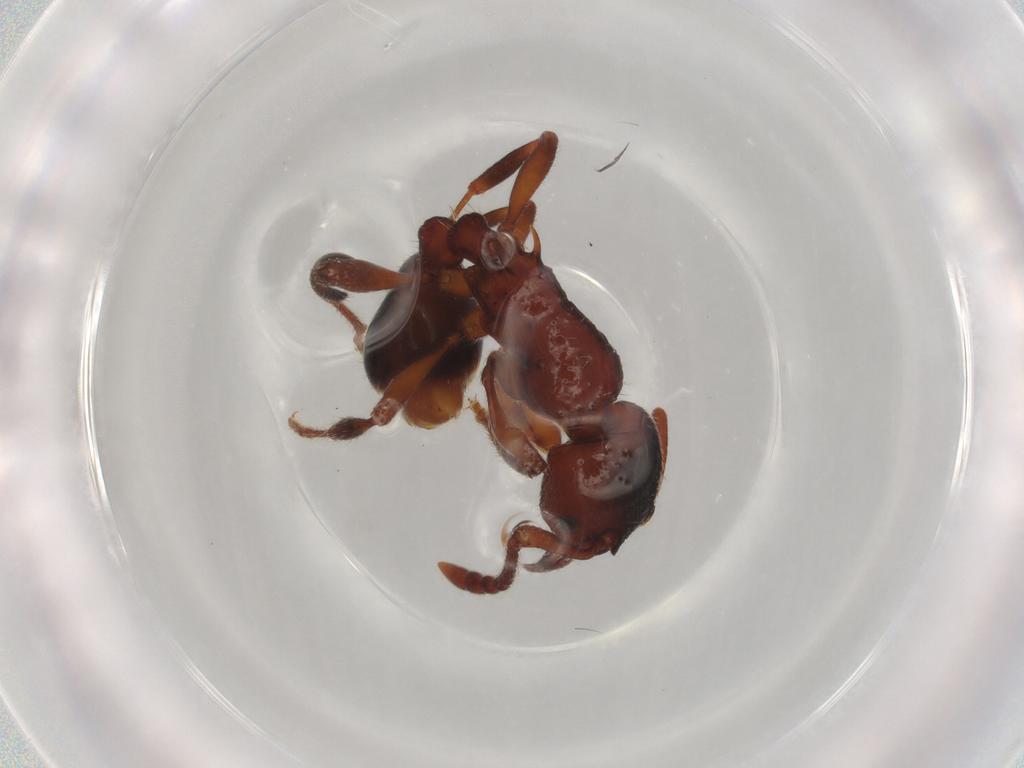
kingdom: Animalia
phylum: Arthropoda
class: Insecta
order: Hymenoptera
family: Formicidae
